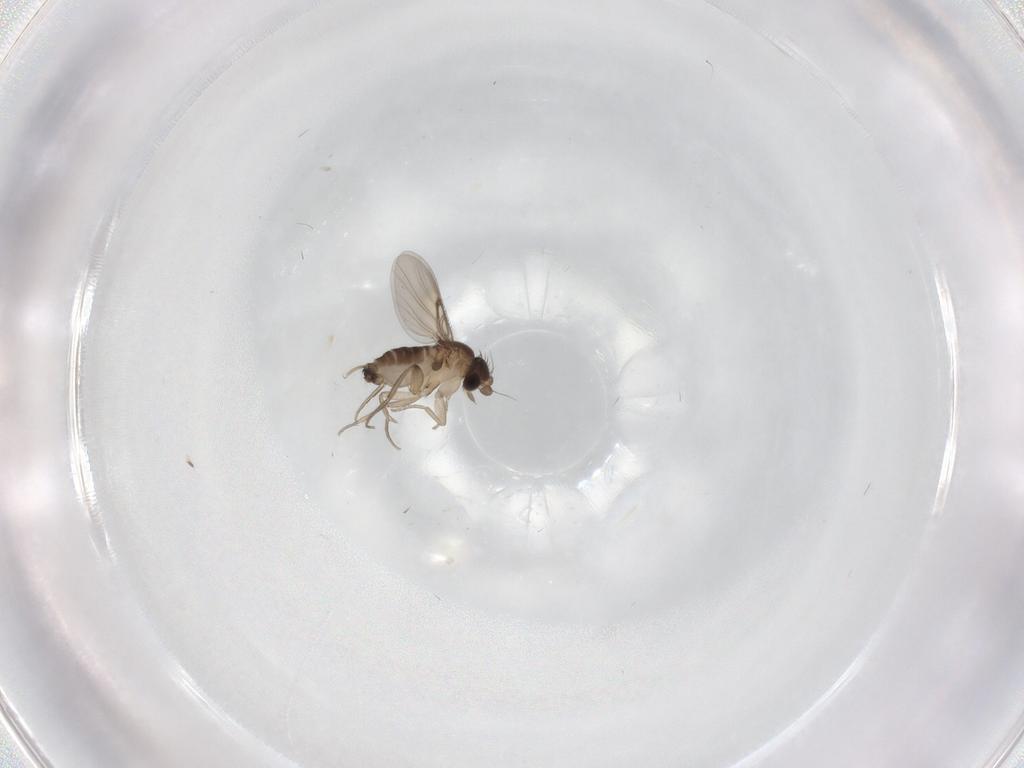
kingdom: Animalia
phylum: Arthropoda
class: Insecta
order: Diptera
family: Phoridae
